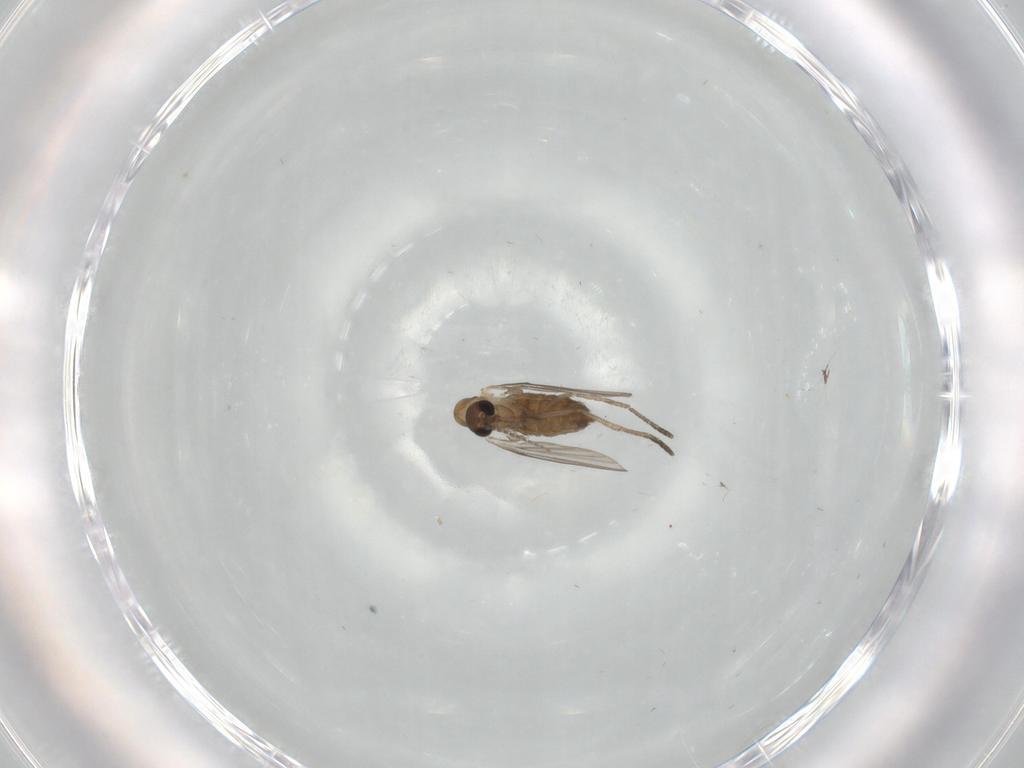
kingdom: Animalia
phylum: Arthropoda
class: Insecta
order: Diptera
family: Psychodidae
